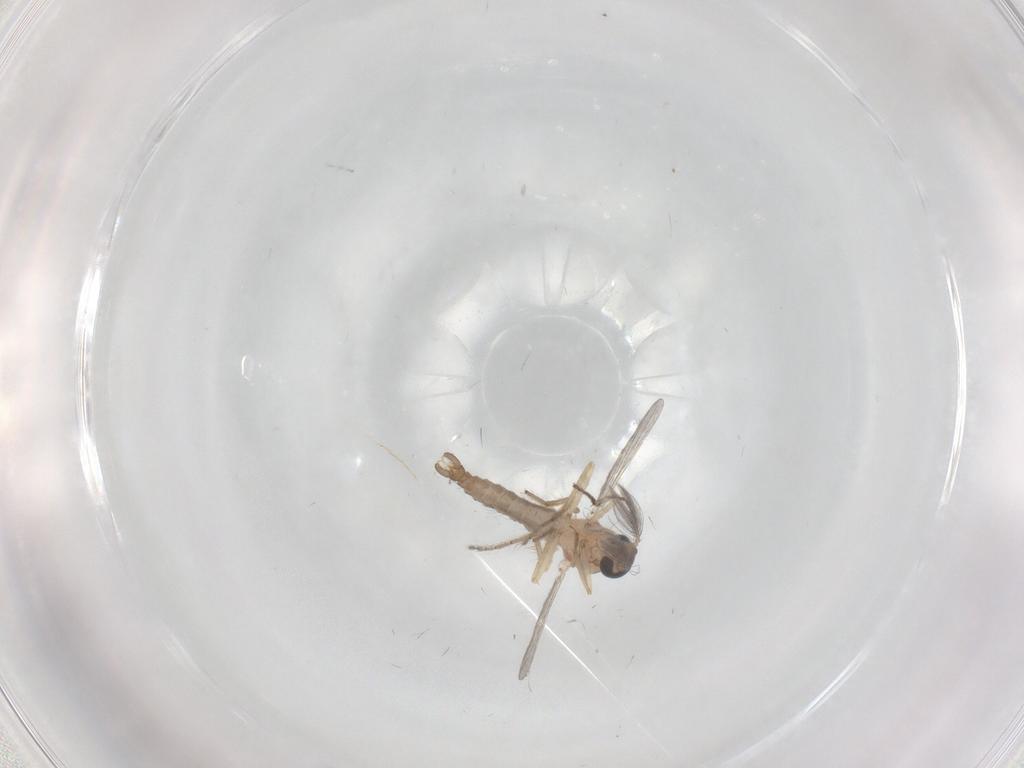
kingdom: Animalia
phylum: Arthropoda
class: Insecta
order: Diptera
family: Limoniidae
